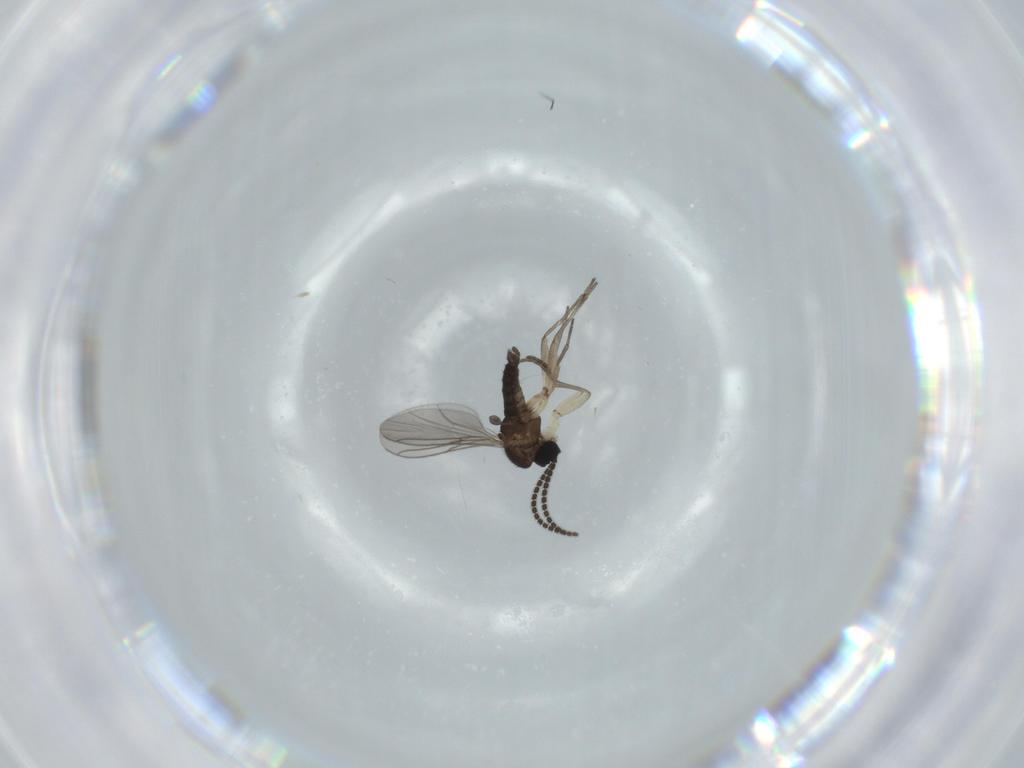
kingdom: Animalia
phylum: Arthropoda
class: Insecta
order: Diptera
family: Sciaridae
